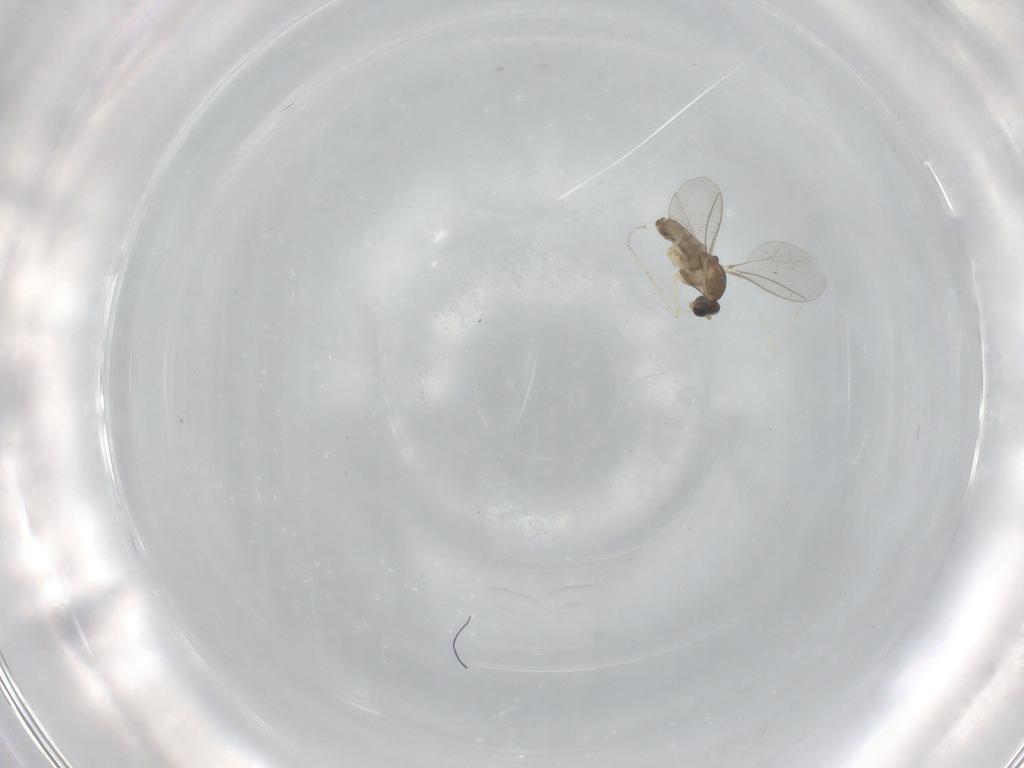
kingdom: Animalia
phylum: Arthropoda
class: Insecta
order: Diptera
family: Cecidomyiidae
